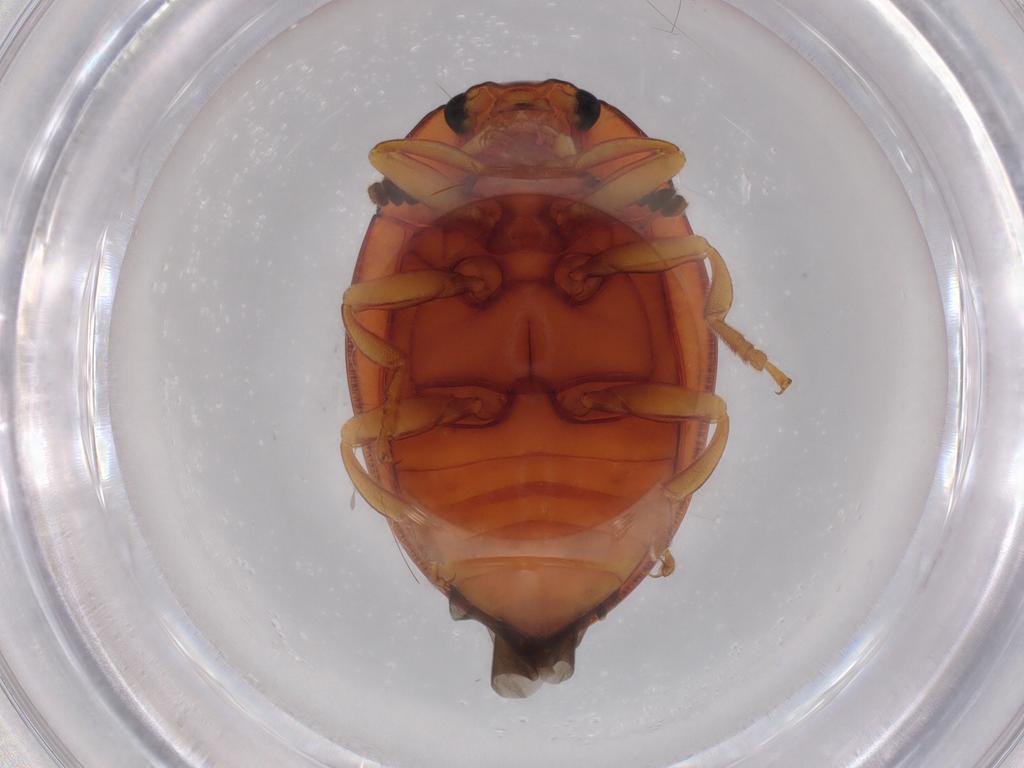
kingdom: Animalia
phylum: Arthropoda
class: Insecta
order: Coleoptera
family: Erotylidae
